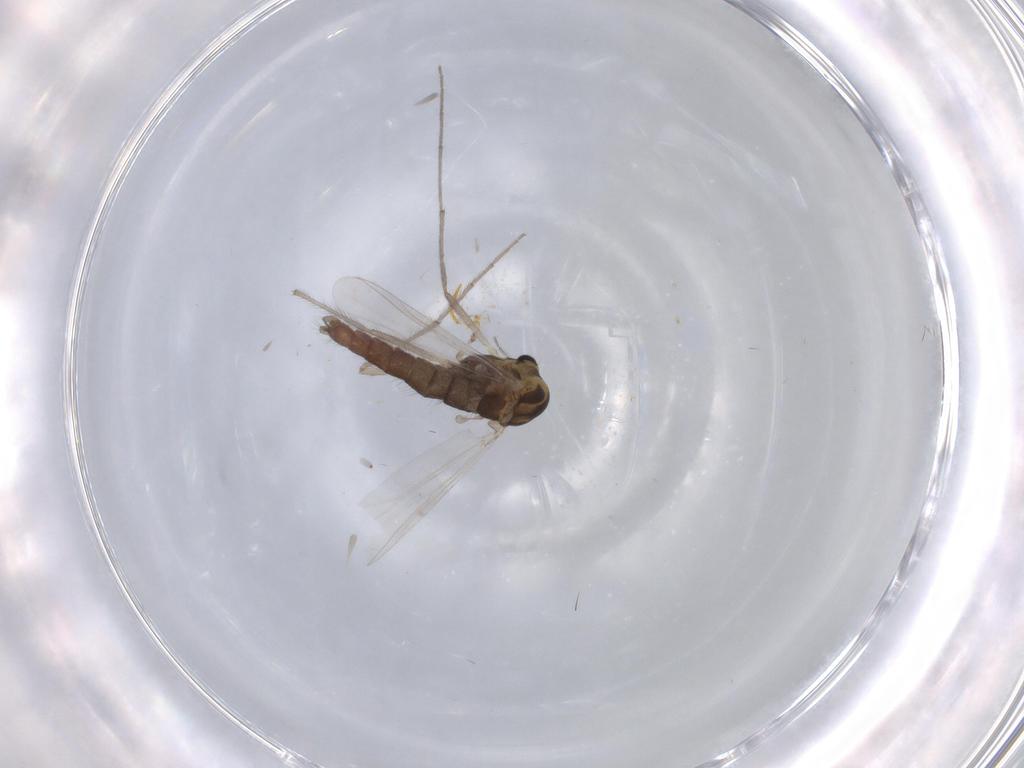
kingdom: Animalia
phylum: Arthropoda
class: Insecta
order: Diptera
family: Chironomidae
